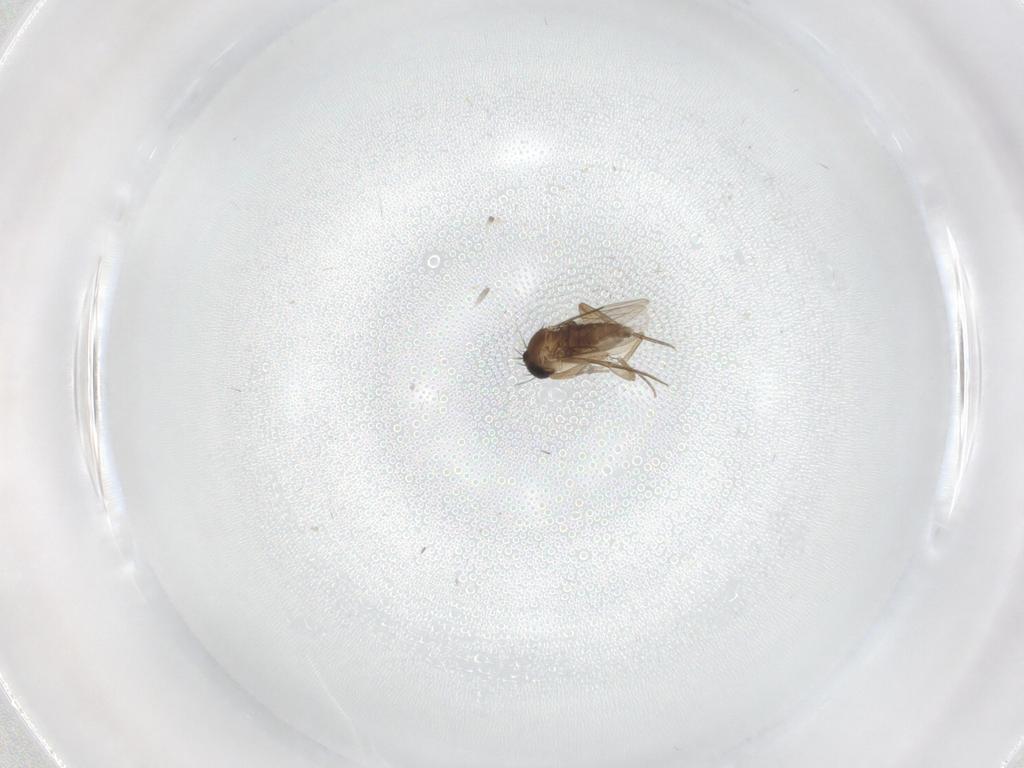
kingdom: Animalia
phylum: Arthropoda
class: Insecta
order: Diptera
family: Phoridae
